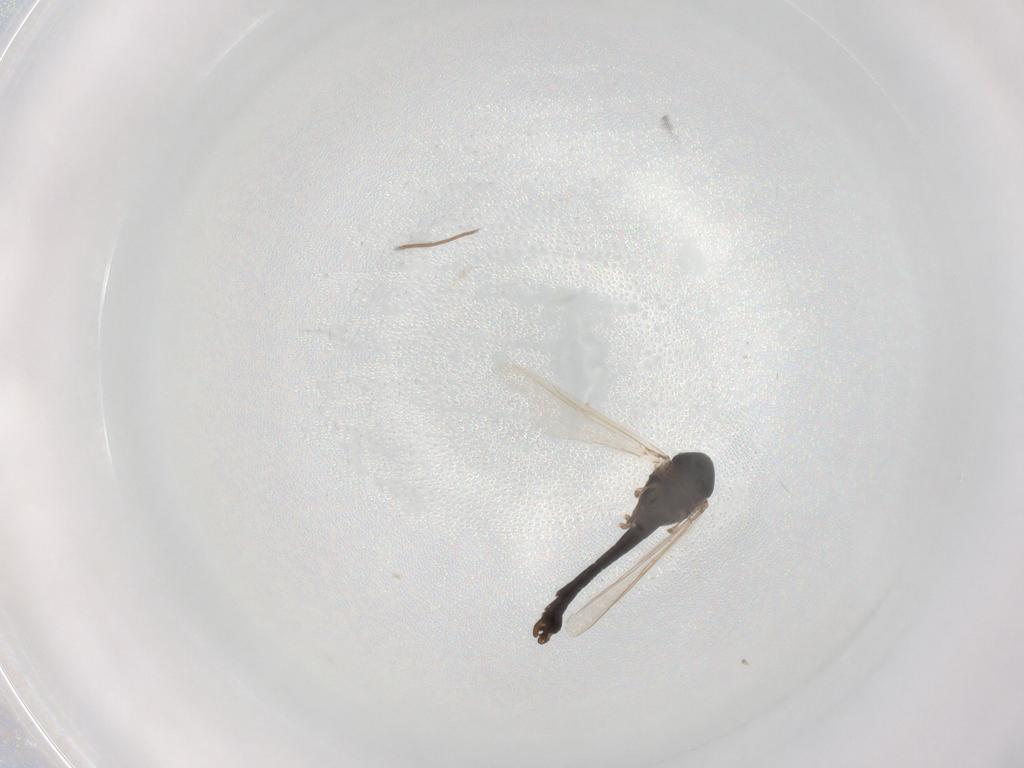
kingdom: Animalia
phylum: Arthropoda
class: Insecta
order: Diptera
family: Chironomidae
